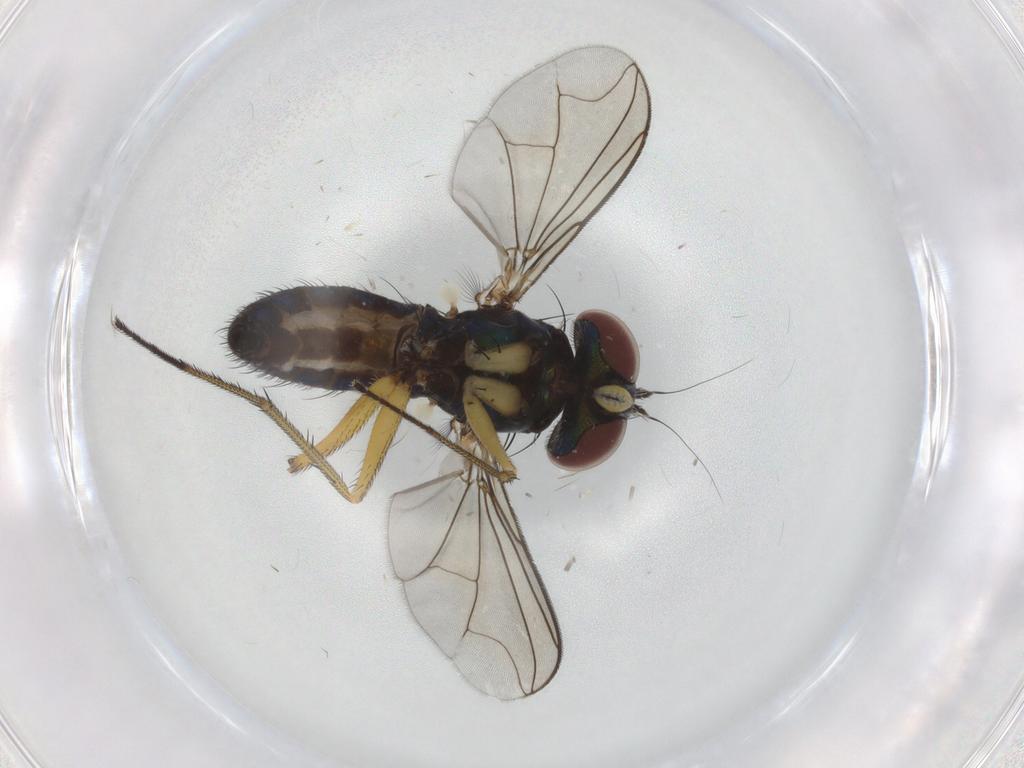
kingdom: Animalia
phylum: Arthropoda
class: Insecta
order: Diptera
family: Dolichopodidae
